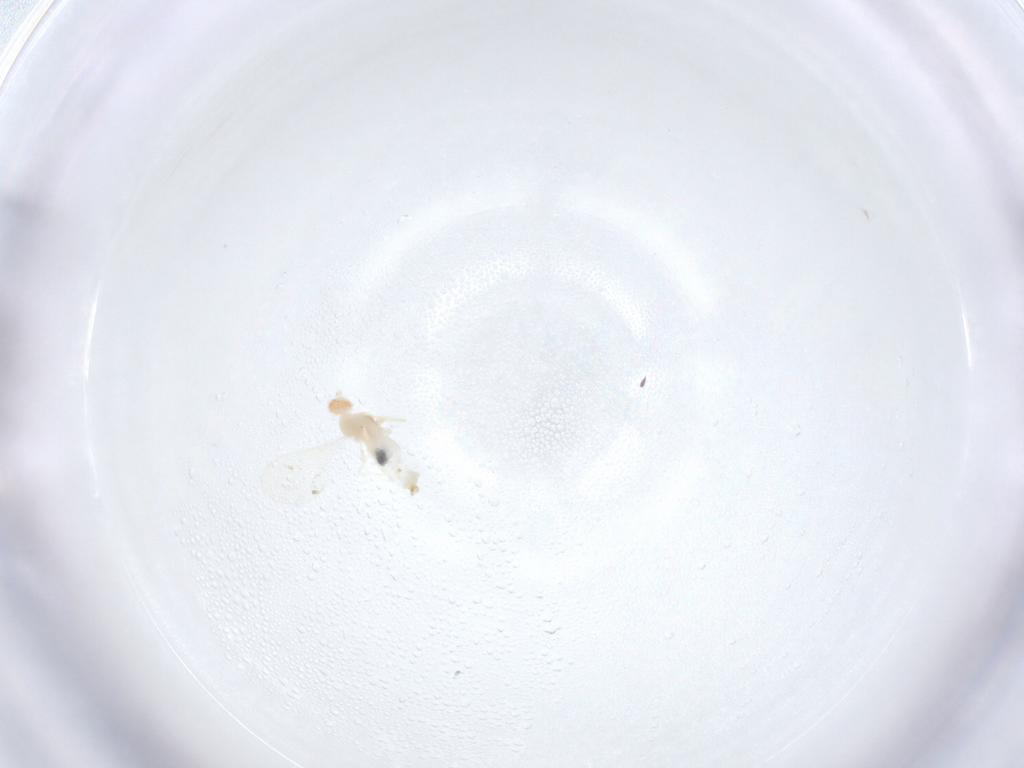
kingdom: Animalia
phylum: Arthropoda
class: Insecta
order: Diptera
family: Cecidomyiidae
